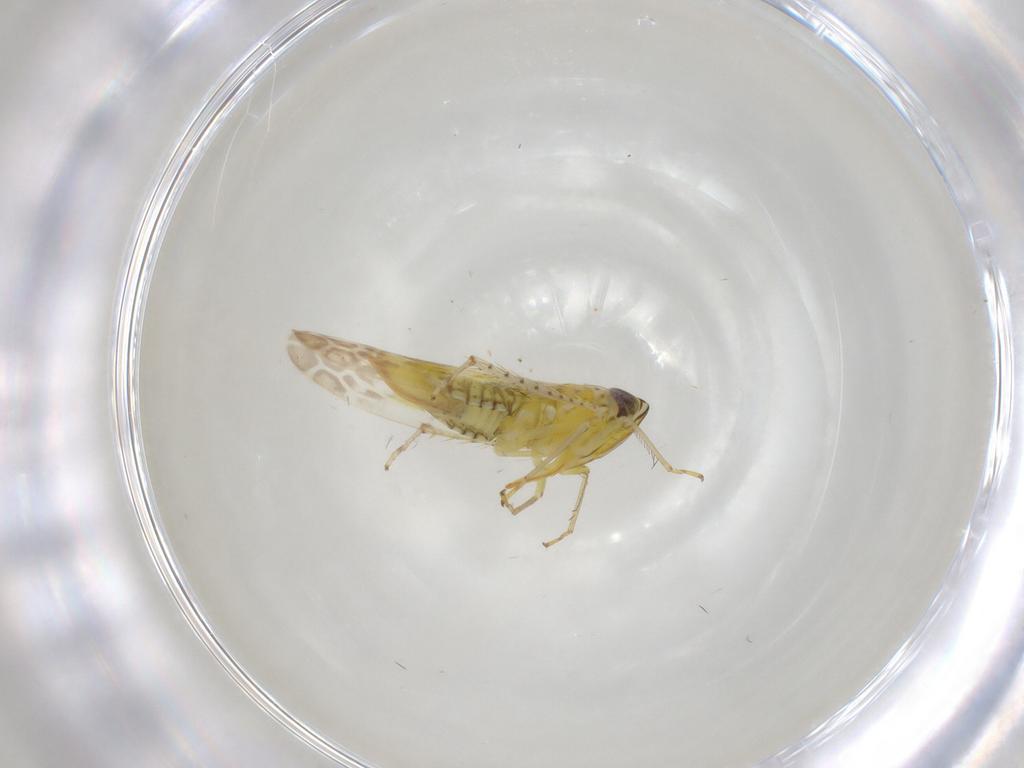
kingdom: Animalia
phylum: Arthropoda
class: Insecta
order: Hemiptera
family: Cicadellidae
